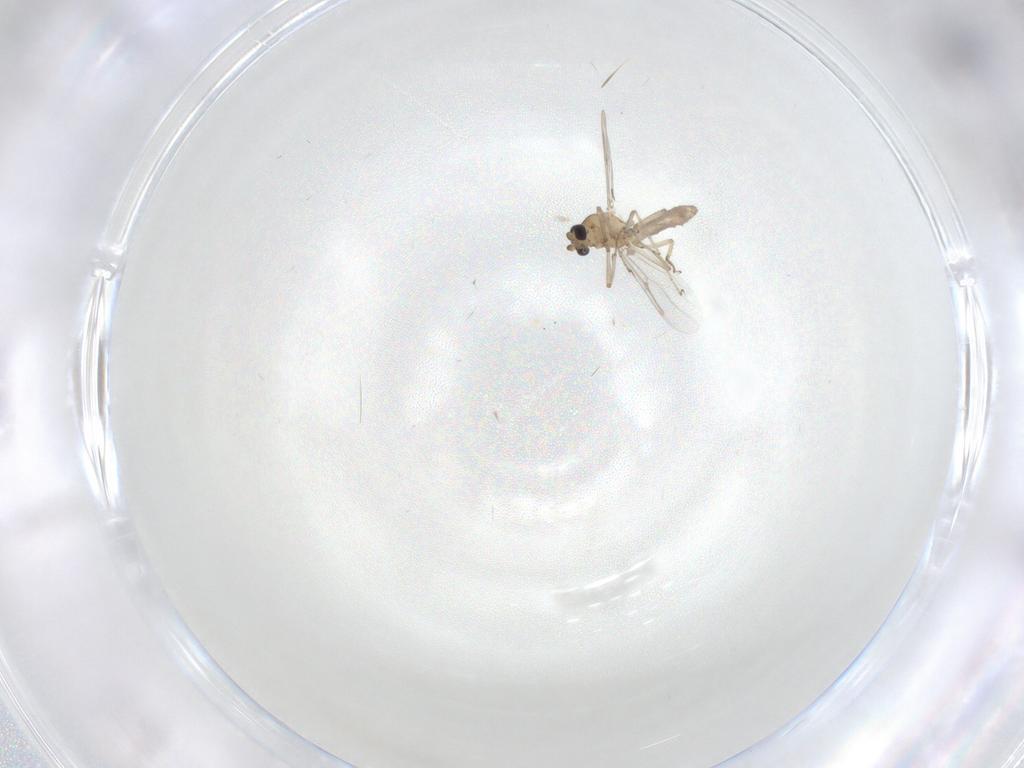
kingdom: Animalia
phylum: Arthropoda
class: Insecta
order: Diptera
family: Ceratopogonidae
